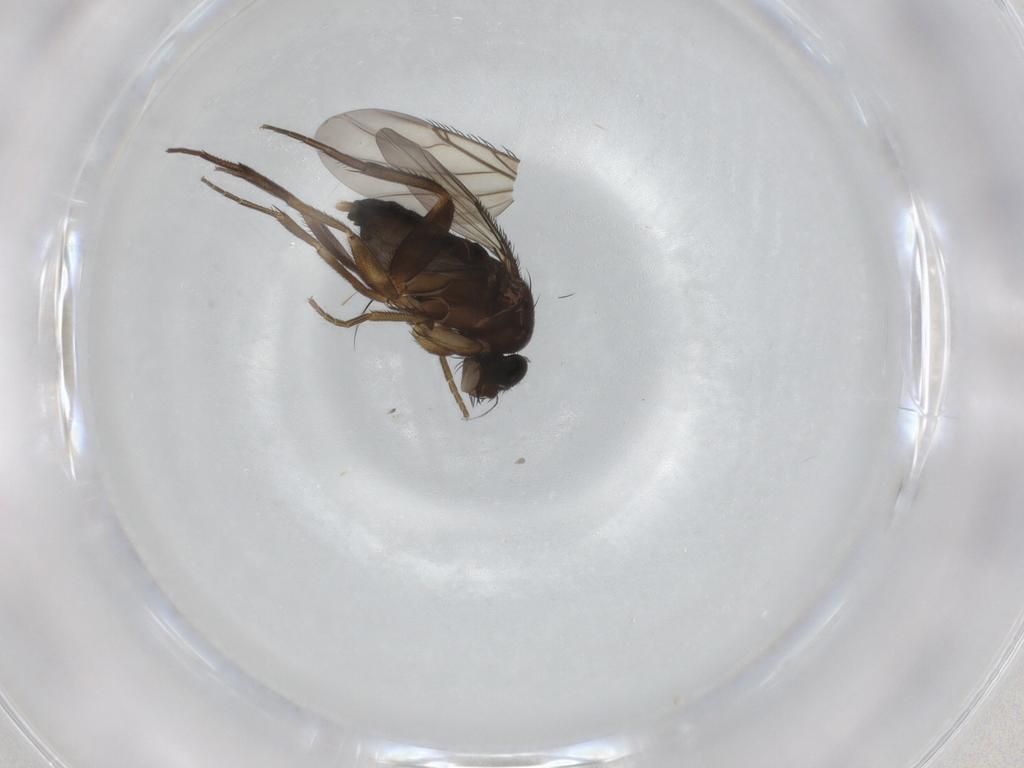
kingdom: Animalia
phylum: Arthropoda
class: Insecta
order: Diptera
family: Phoridae
